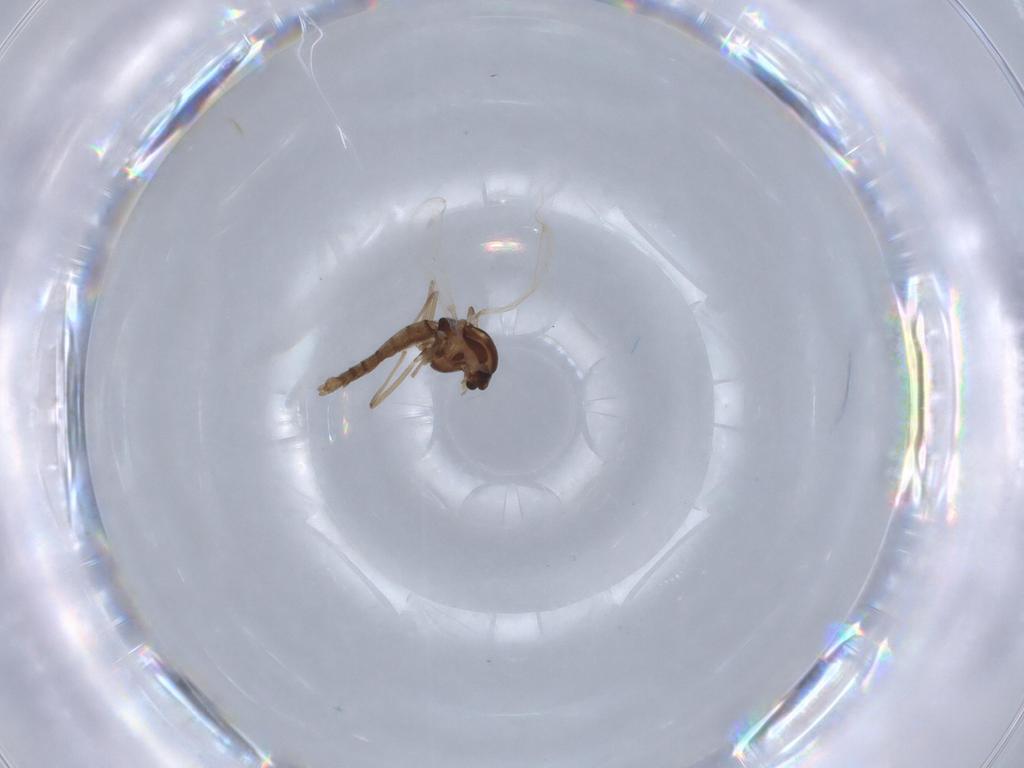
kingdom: Animalia
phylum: Arthropoda
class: Insecta
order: Diptera
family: Chironomidae
